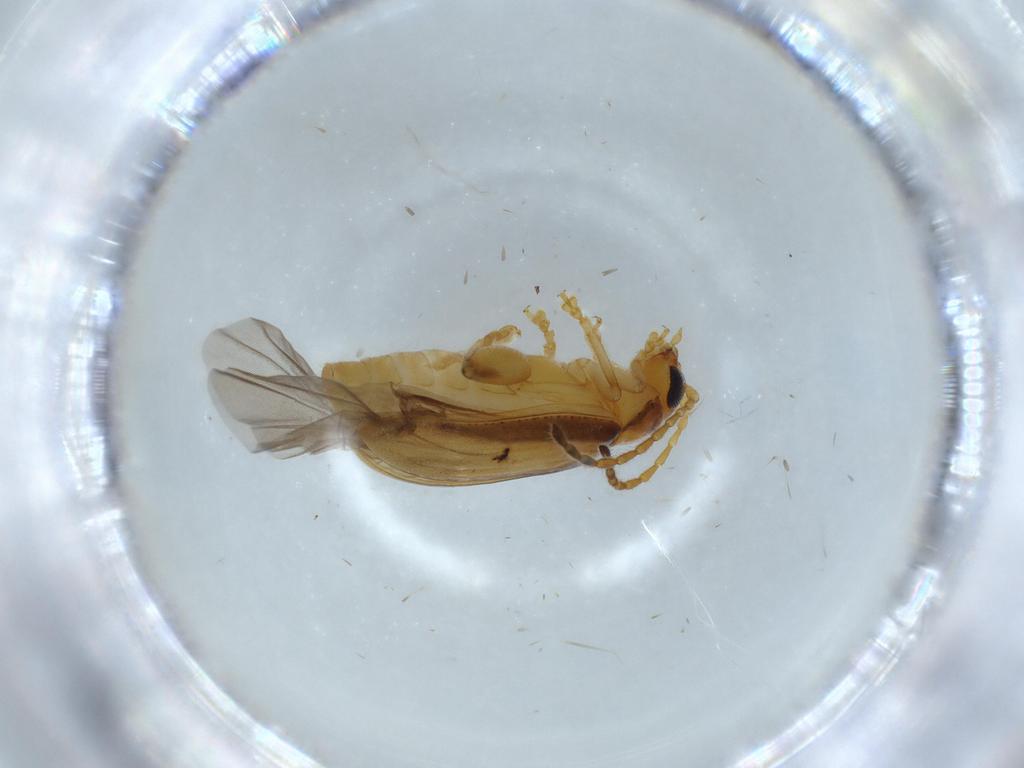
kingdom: Animalia
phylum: Arthropoda
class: Insecta
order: Coleoptera
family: Chrysomelidae
